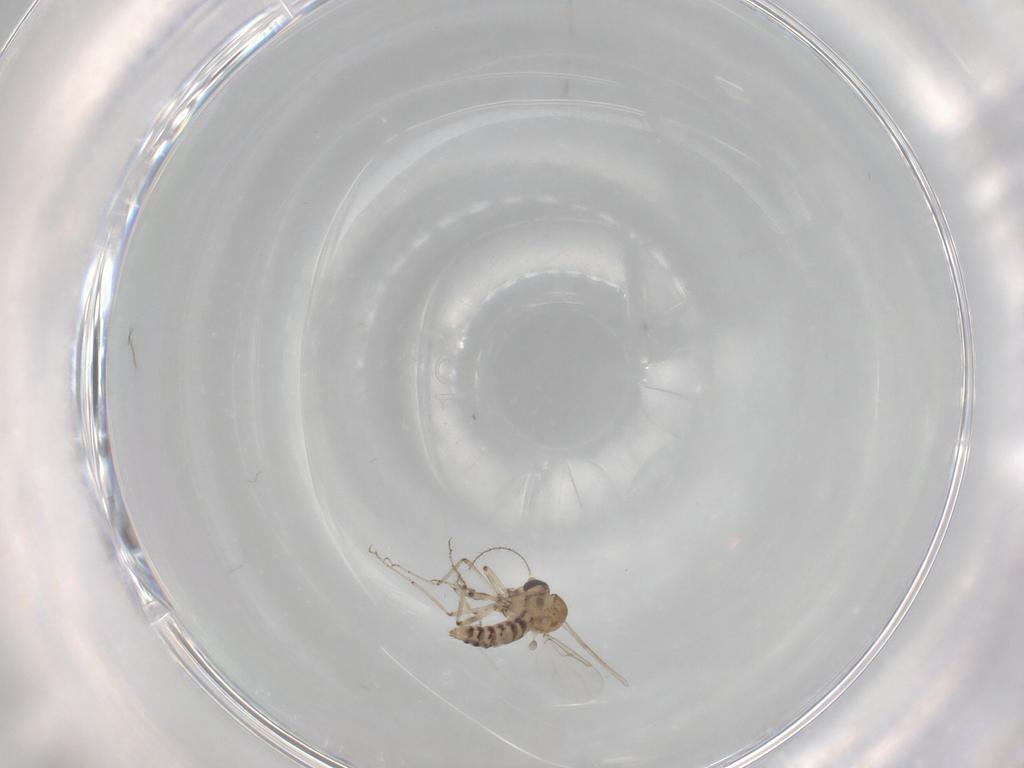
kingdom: Animalia
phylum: Arthropoda
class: Insecta
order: Diptera
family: Ceratopogonidae
